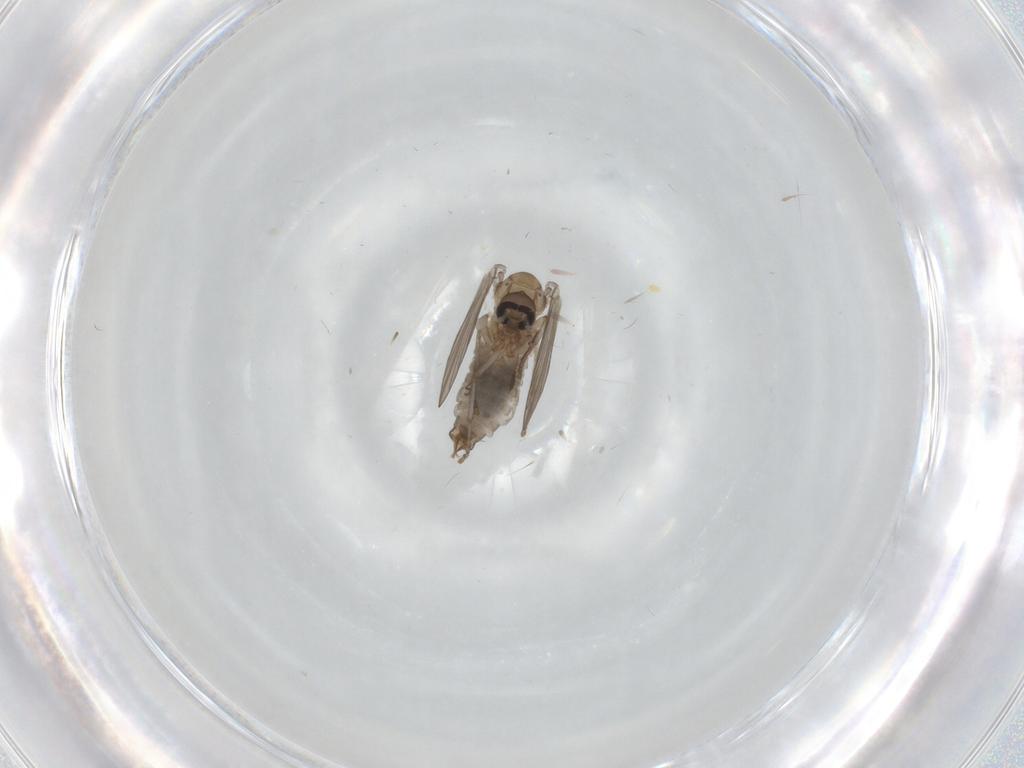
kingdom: Animalia
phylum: Arthropoda
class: Insecta
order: Diptera
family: Psychodidae
